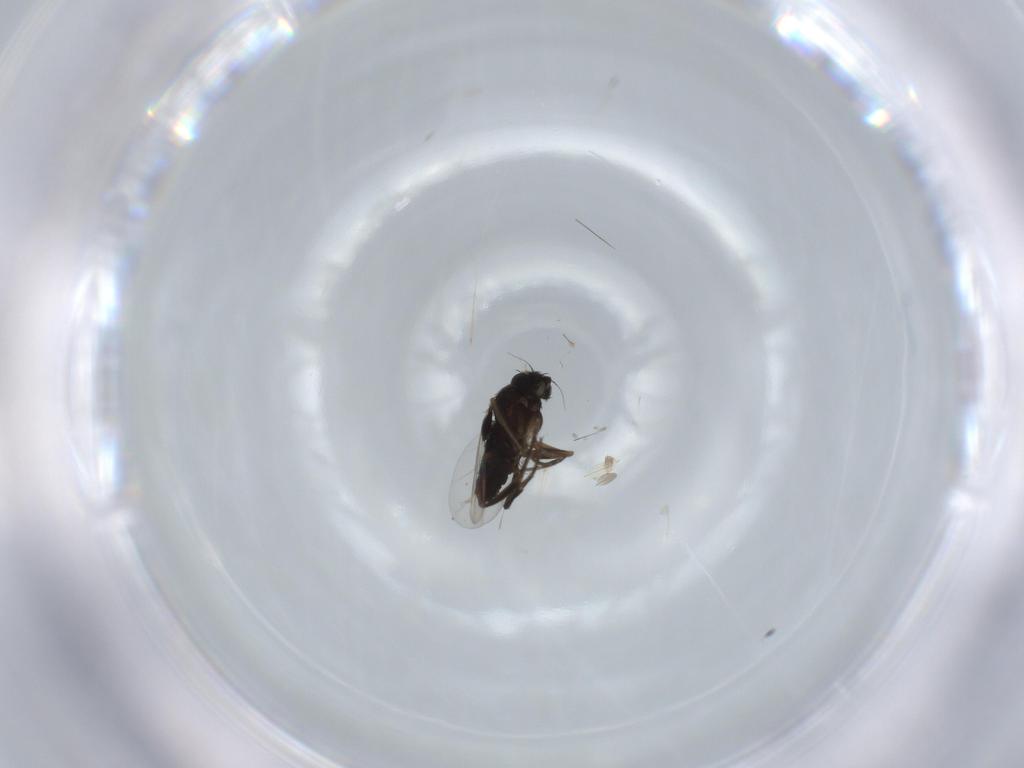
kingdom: Animalia
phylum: Arthropoda
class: Insecta
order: Diptera
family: Phoridae
